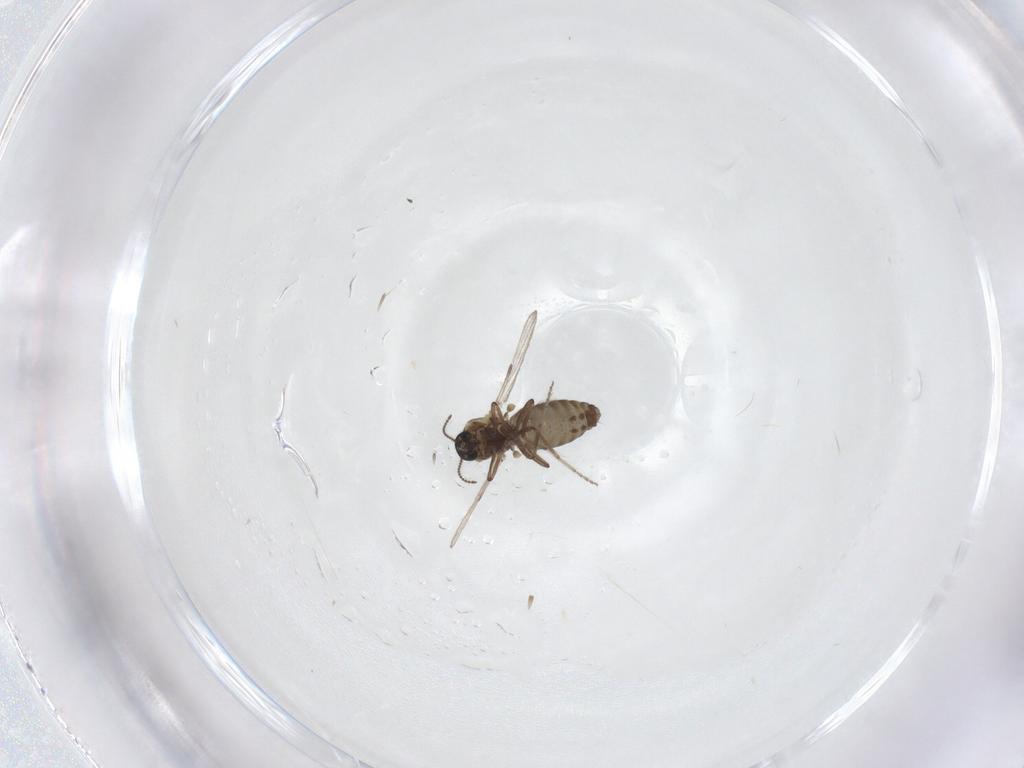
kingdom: Animalia
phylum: Arthropoda
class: Insecta
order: Diptera
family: Ceratopogonidae
